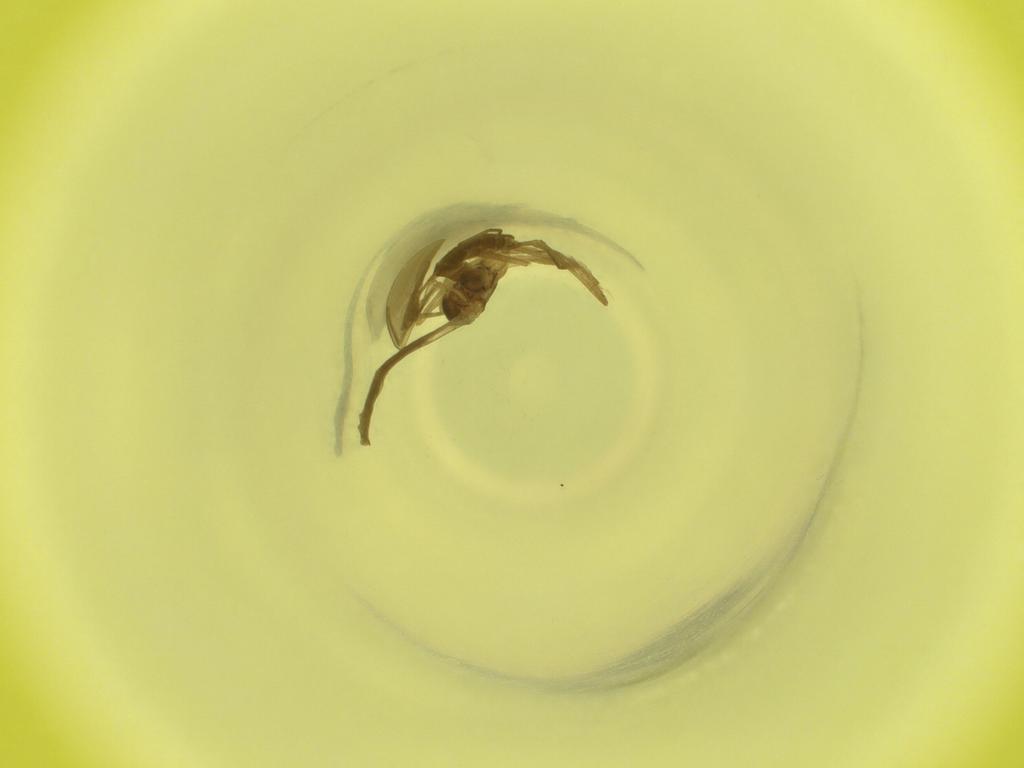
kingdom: Animalia
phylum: Arthropoda
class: Insecta
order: Diptera
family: Cecidomyiidae
